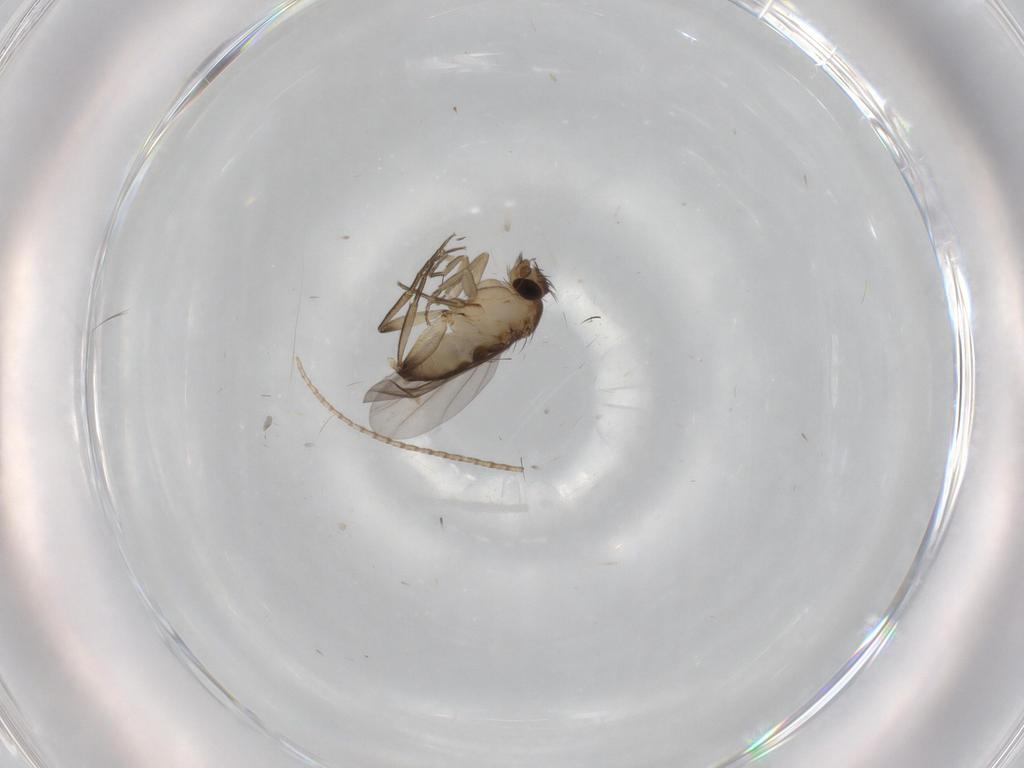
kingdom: Animalia
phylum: Arthropoda
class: Insecta
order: Diptera
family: Phoridae
